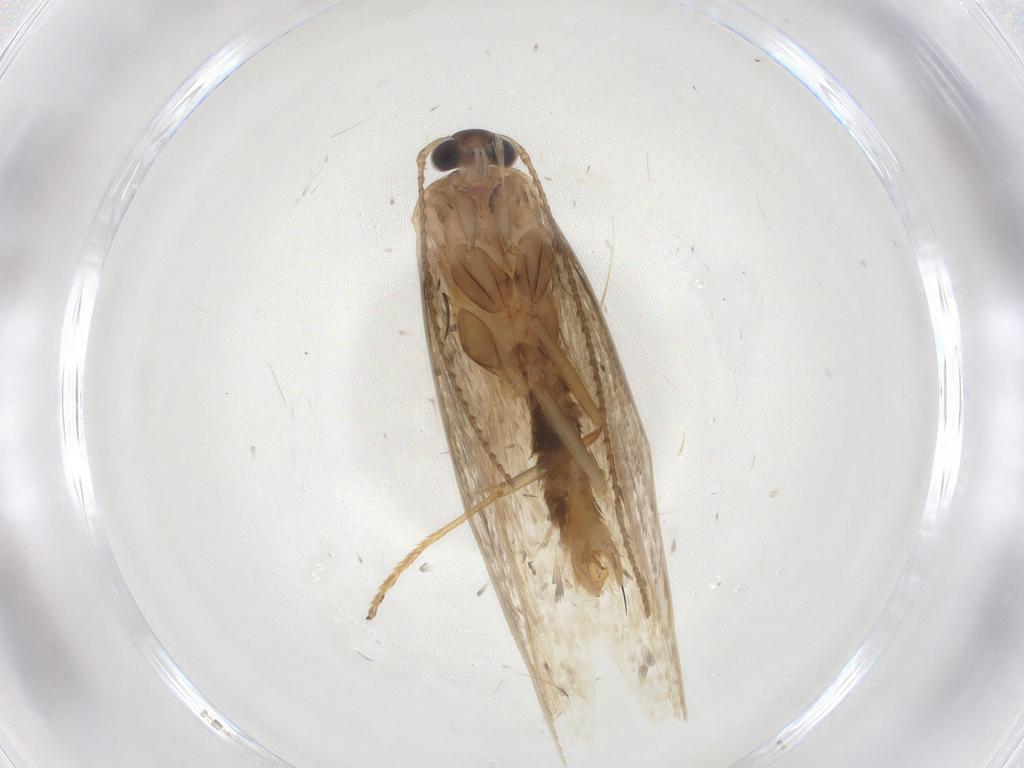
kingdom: Animalia
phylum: Arthropoda
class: Insecta
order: Lepidoptera
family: Erebidae
